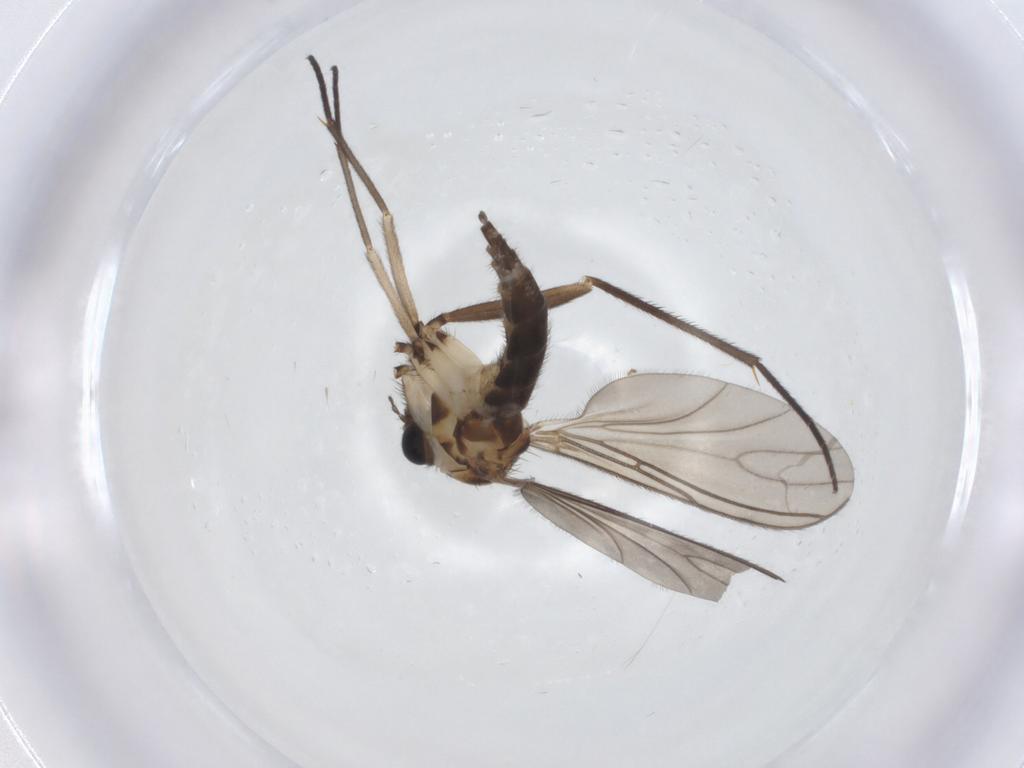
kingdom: Animalia
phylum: Arthropoda
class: Insecta
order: Diptera
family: Sciaridae
